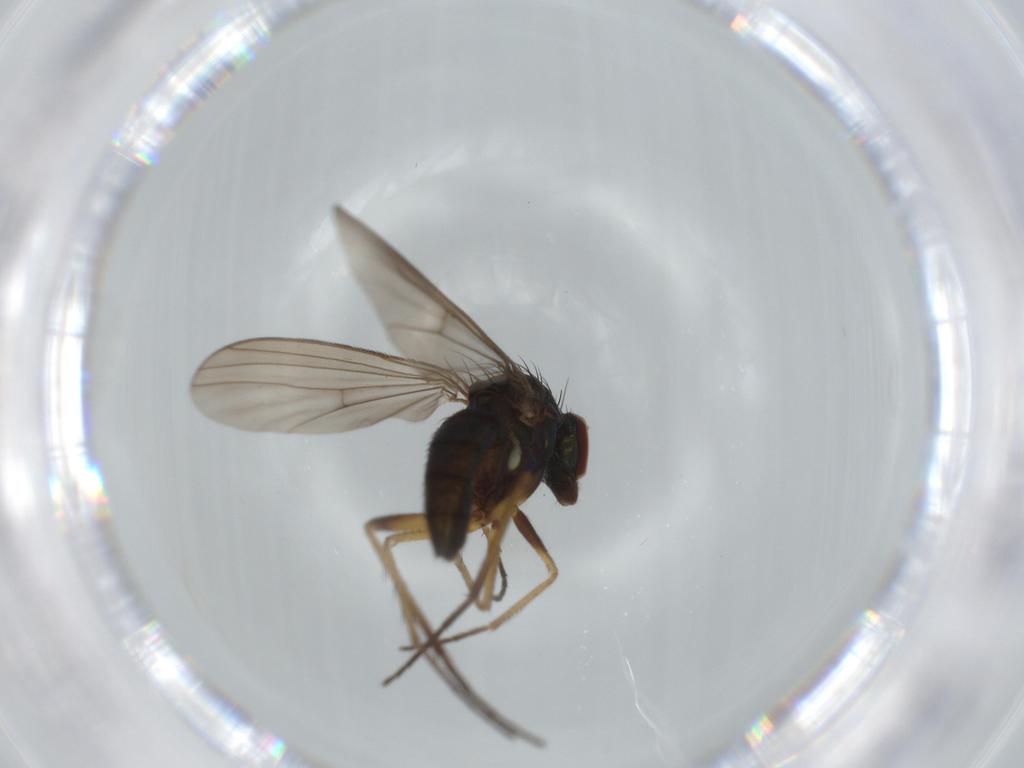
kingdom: Animalia
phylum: Arthropoda
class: Insecta
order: Diptera
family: Dolichopodidae
